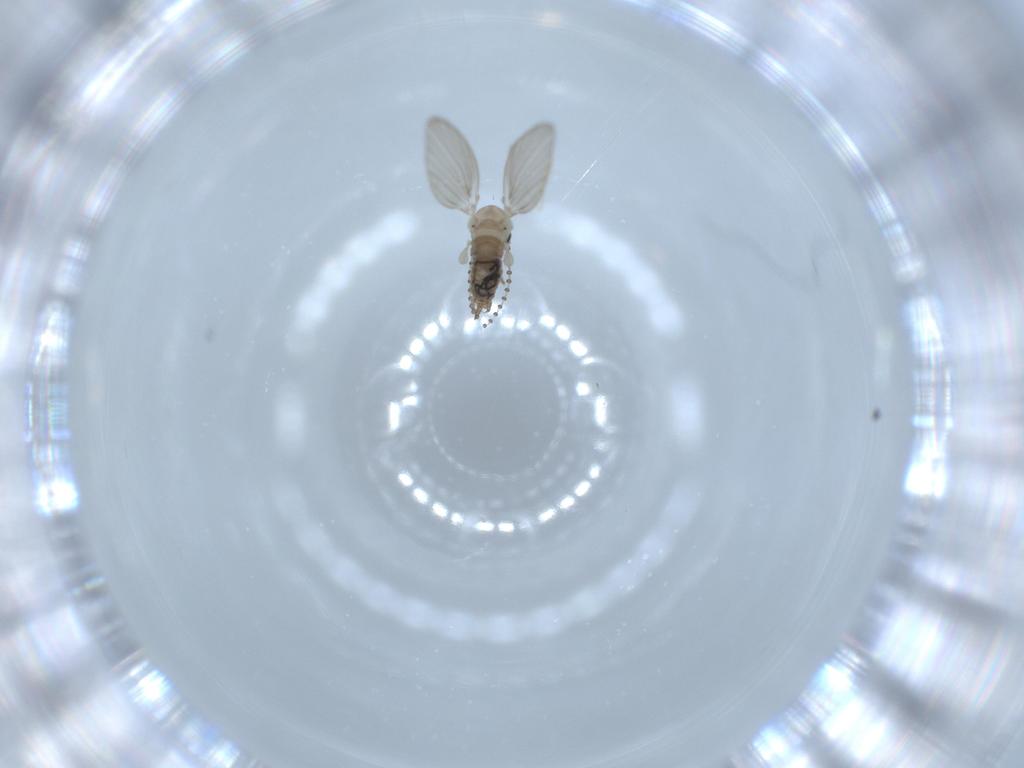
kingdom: Animalia
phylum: Arthropoda
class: Insecta
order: Diptera
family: Psychodidae
